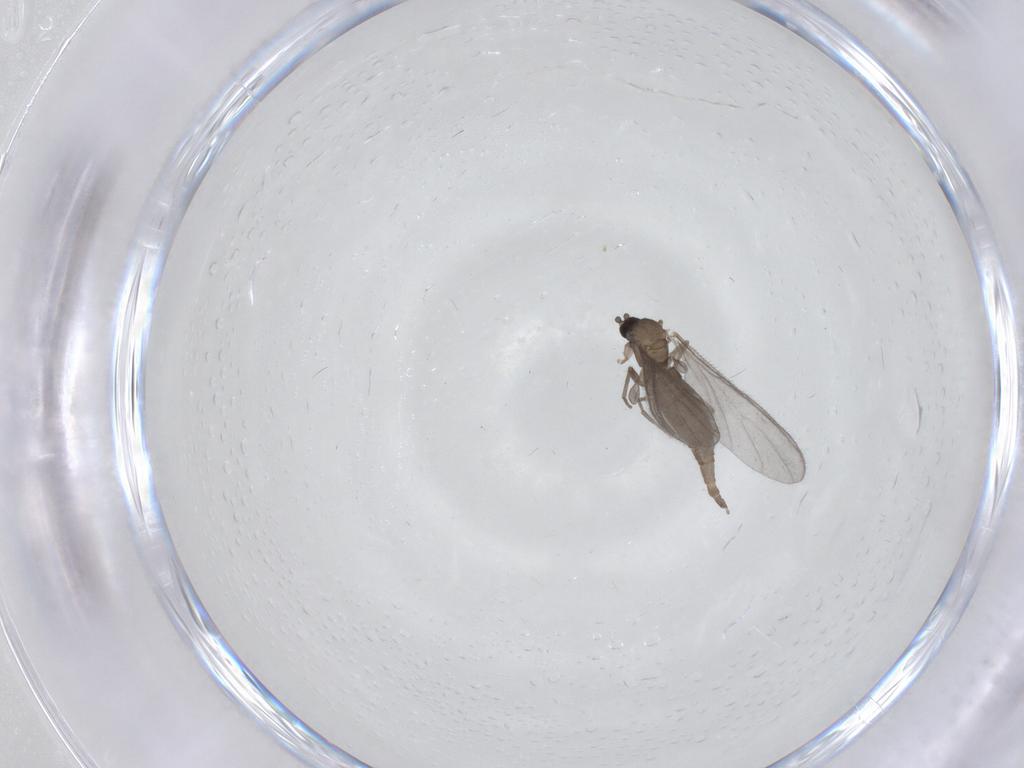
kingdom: Animalia
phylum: Arthropoda
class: Insecta
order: Diptera
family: Sciaridae
